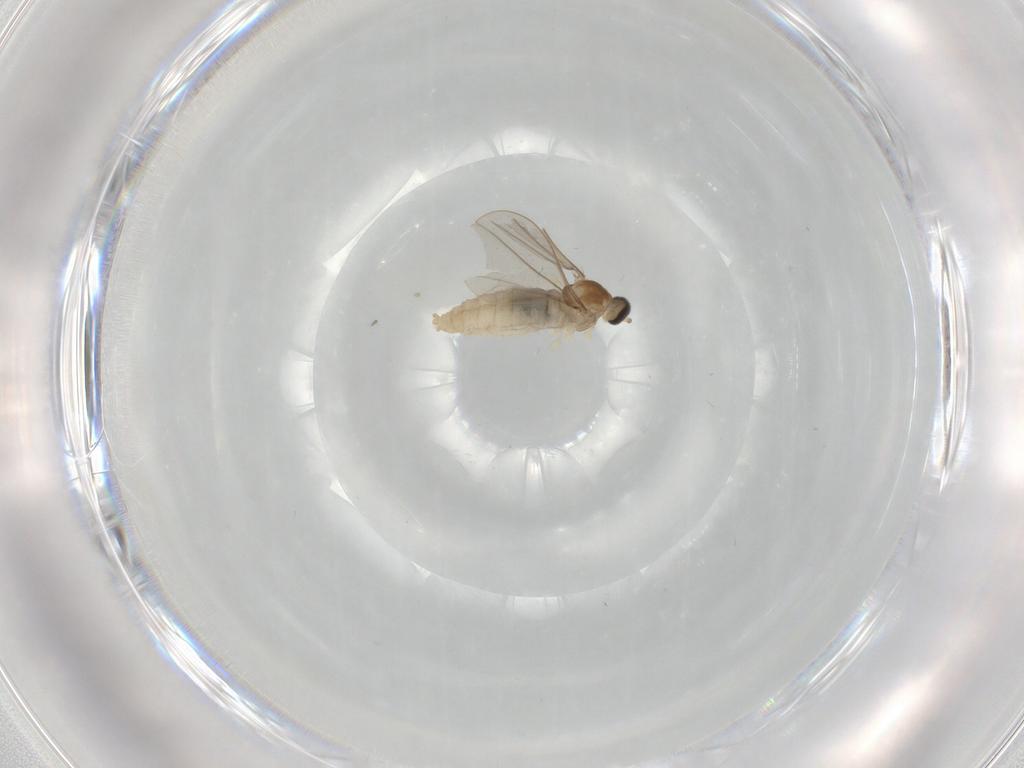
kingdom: Animalia
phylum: Arthropoda
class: Insecta
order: Diptera
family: Cecidomyiidae
